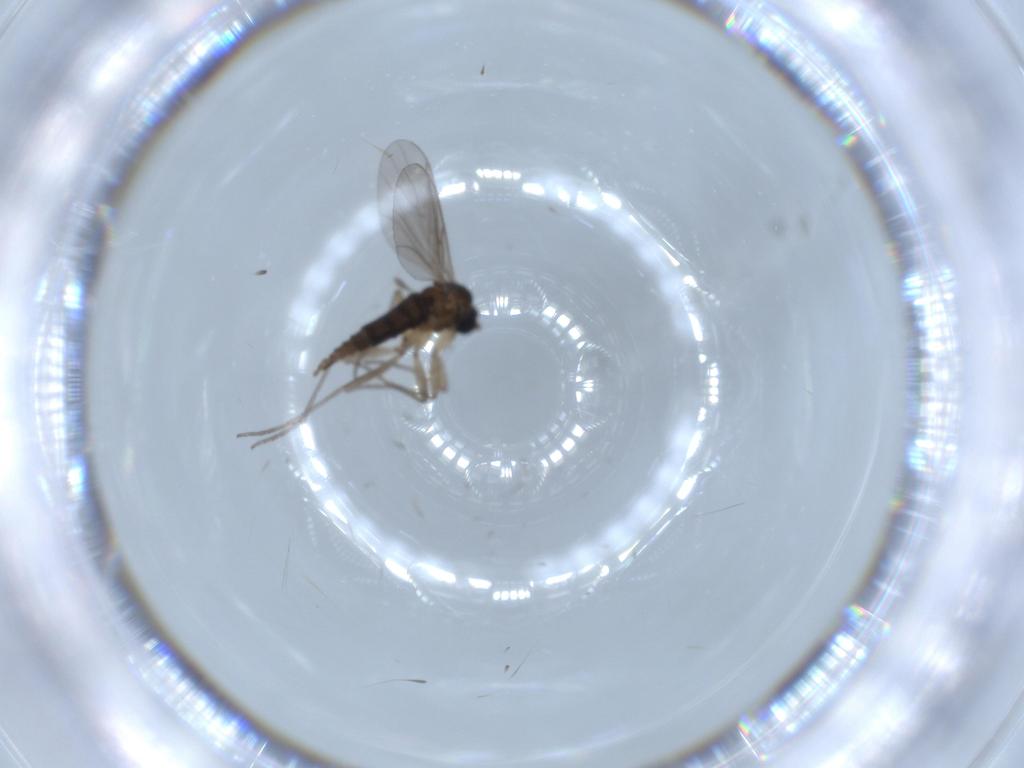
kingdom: Animalia
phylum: Arthropoda
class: Insecta
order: Diptera
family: Sciaridae
